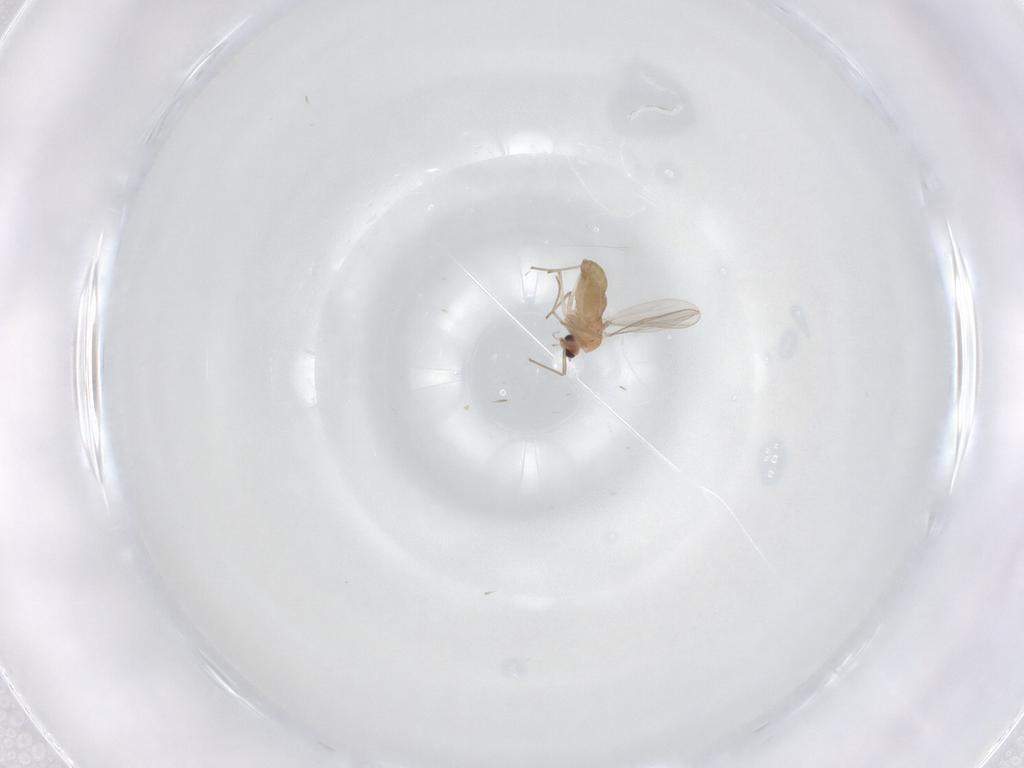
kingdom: Animalia
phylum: Arthropoda
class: Insecta
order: Diptera
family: Chironomidae
